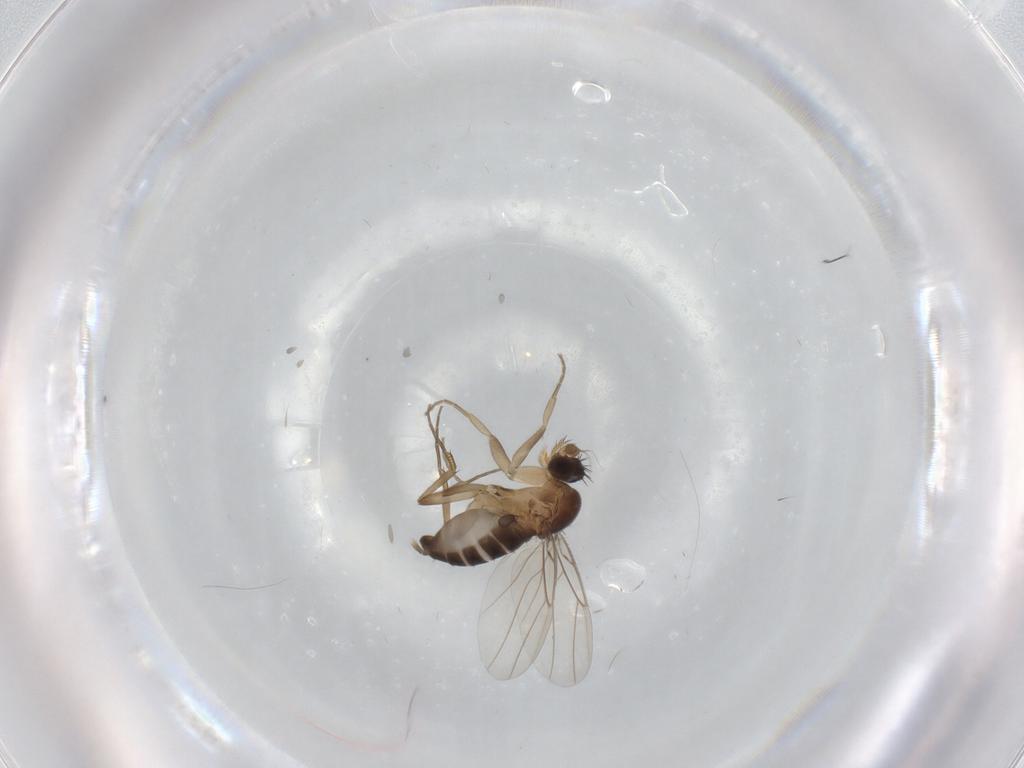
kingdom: Animalia
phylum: Arthropoda
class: Insecta
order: Diptera
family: Phoridae
